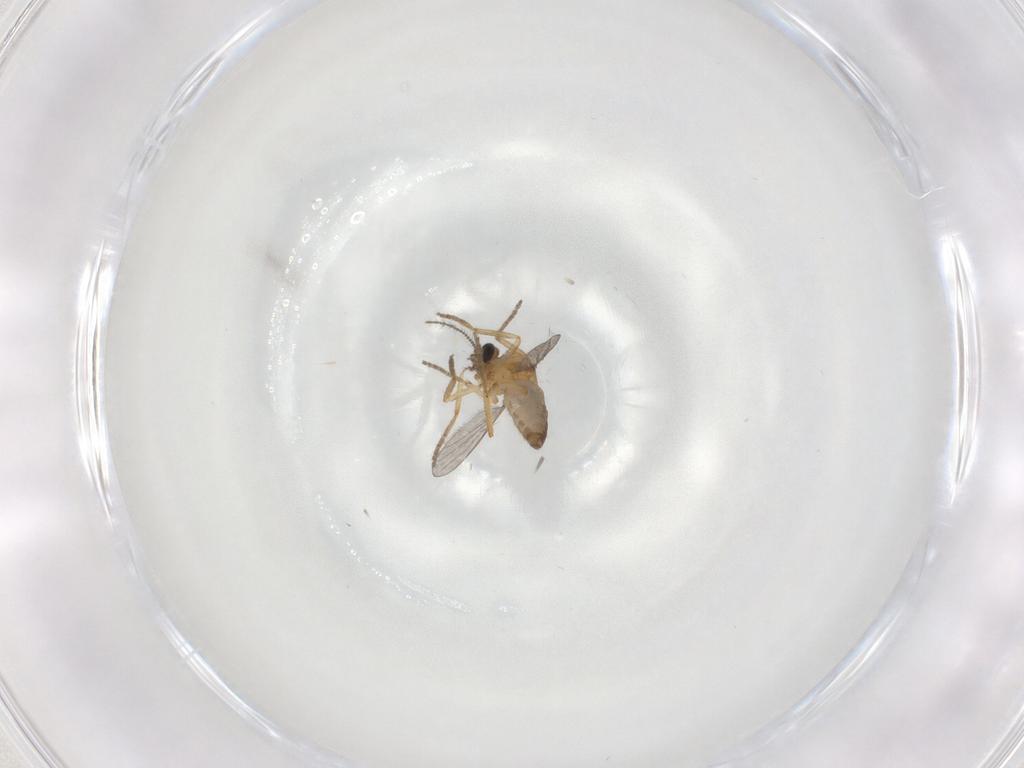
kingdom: Animalia
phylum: Arthropoda
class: Insecta
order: Diptera
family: Ceratopogonidae
